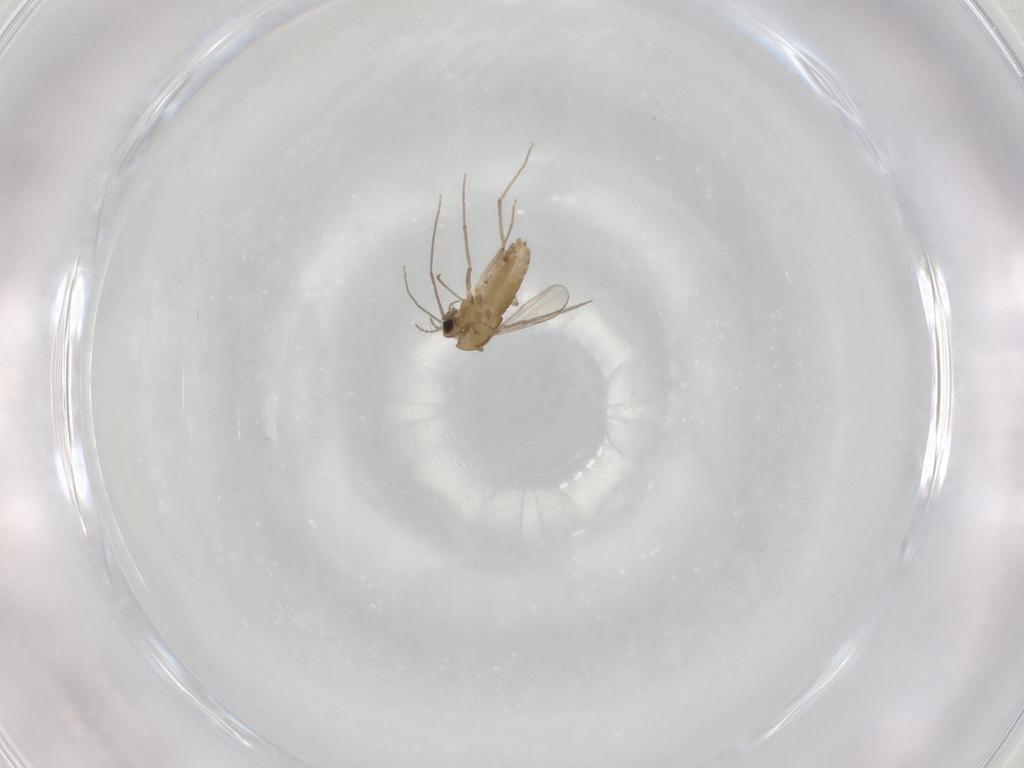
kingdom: Animalia
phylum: Arthropoda
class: Insecta
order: Diptera
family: Chironomidae
